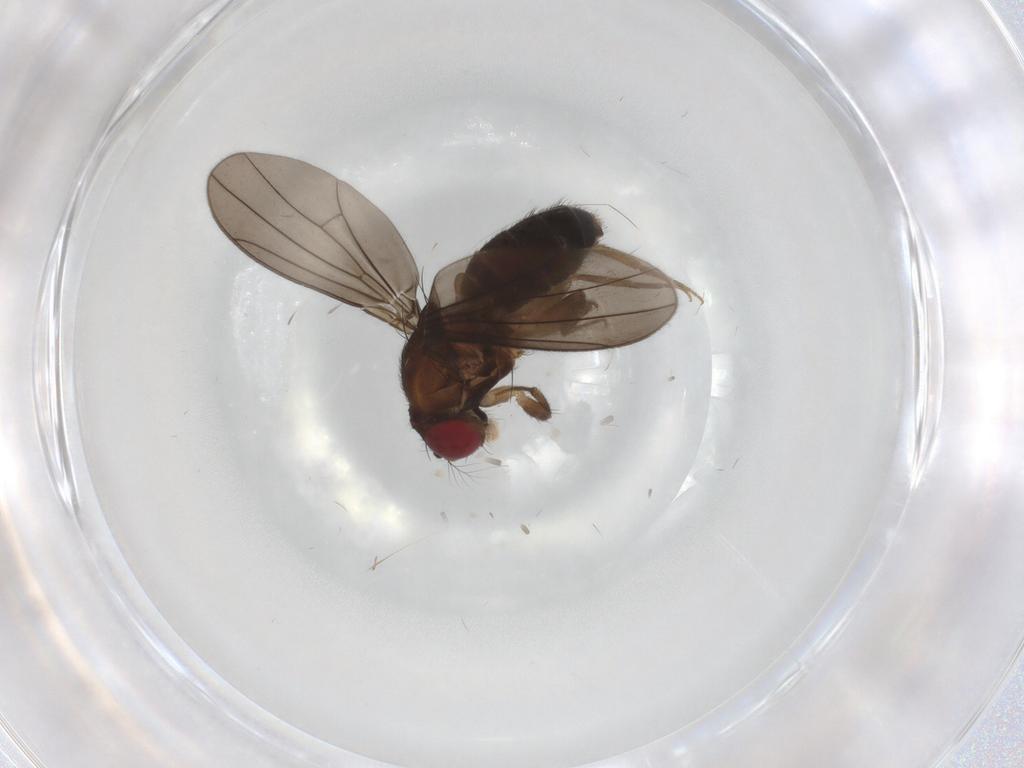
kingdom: Animalia
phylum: Arthropoda
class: Insecta
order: Diptera
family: Drosophilidae
